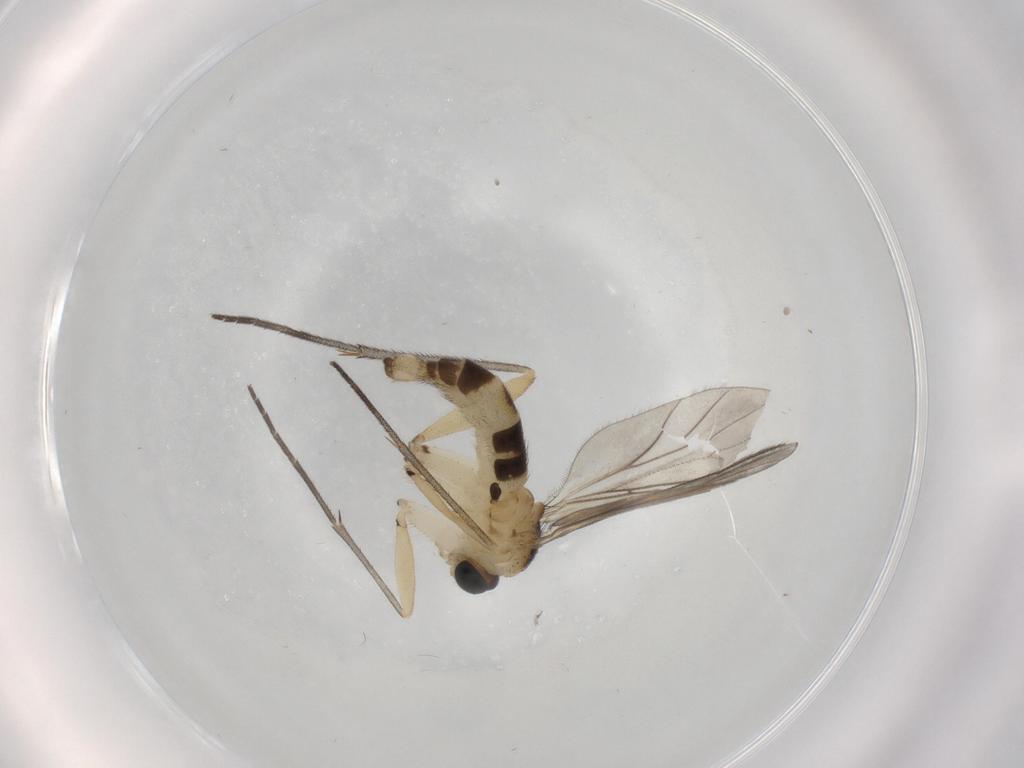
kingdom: Animalia
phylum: Arthropoda
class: Insecta
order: Diptera
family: Sciaridae
